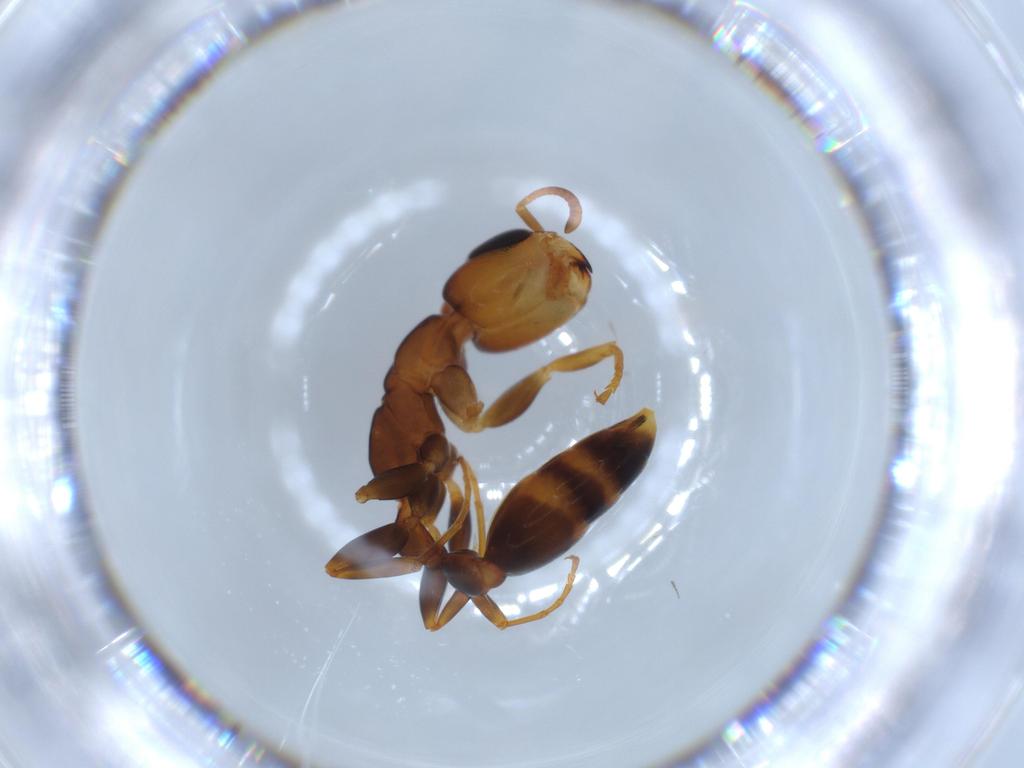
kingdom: Animalia
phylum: Arthropoda
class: Insecta
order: Hymenoptera
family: Formicidae
